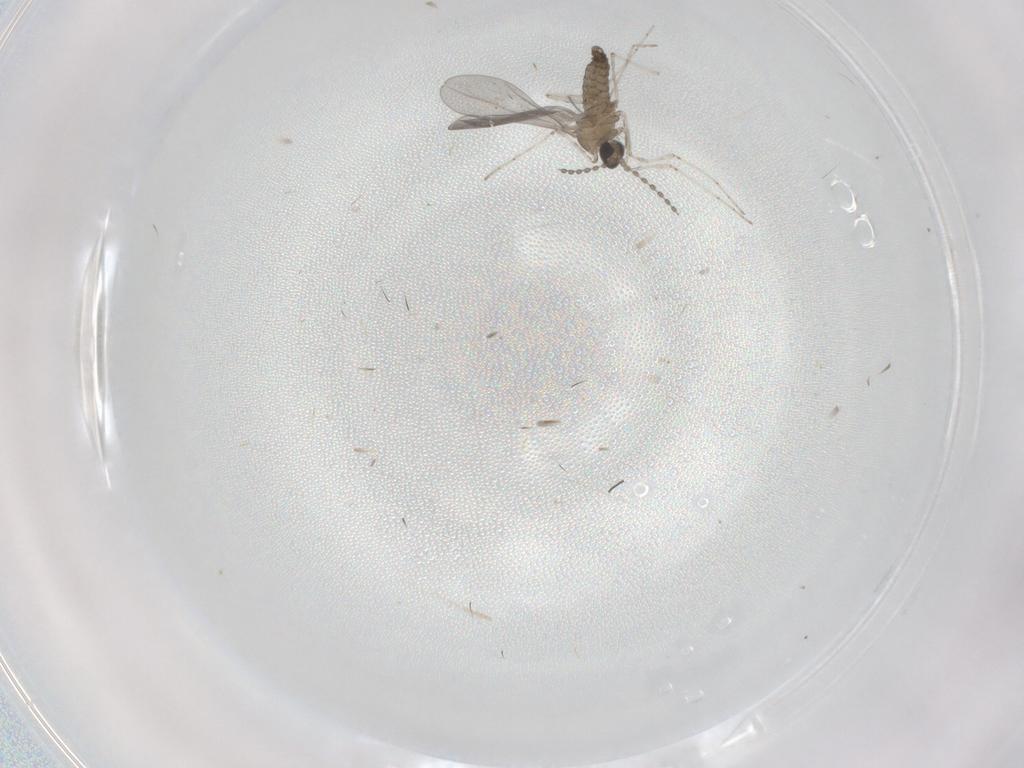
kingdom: Animalia
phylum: Arthropoda
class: Insecta
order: Diptera
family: Cecidomyiidae
